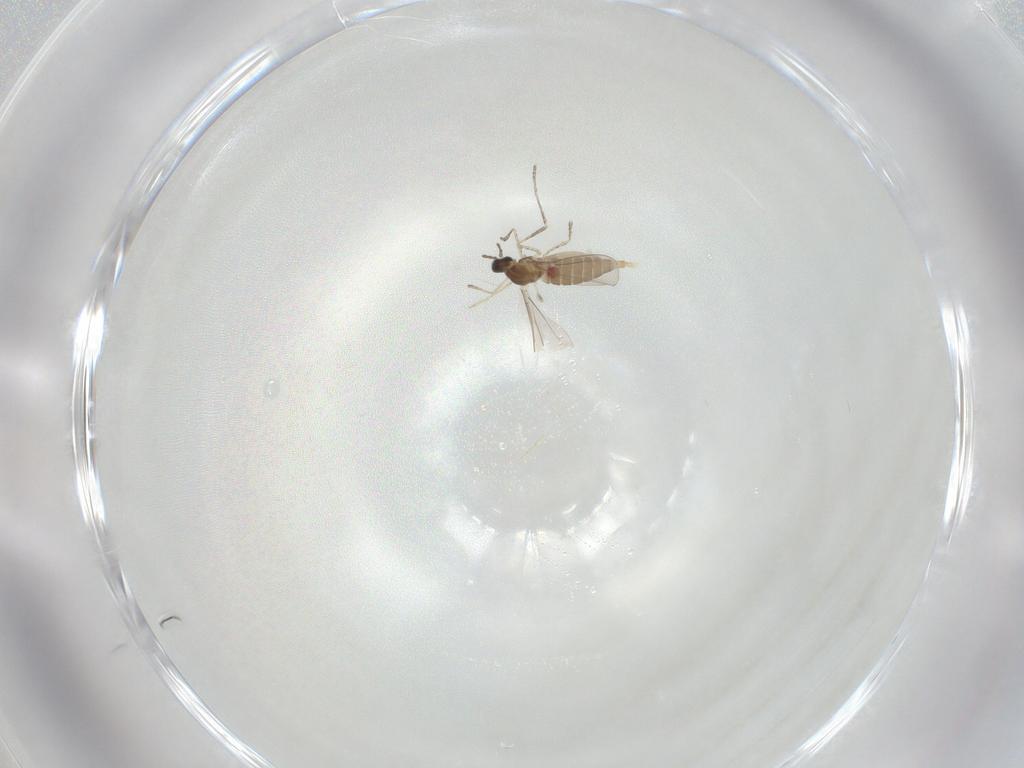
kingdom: Animalia
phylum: Arthropoda
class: Insecta
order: Diptera
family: Cecidomyiidae
